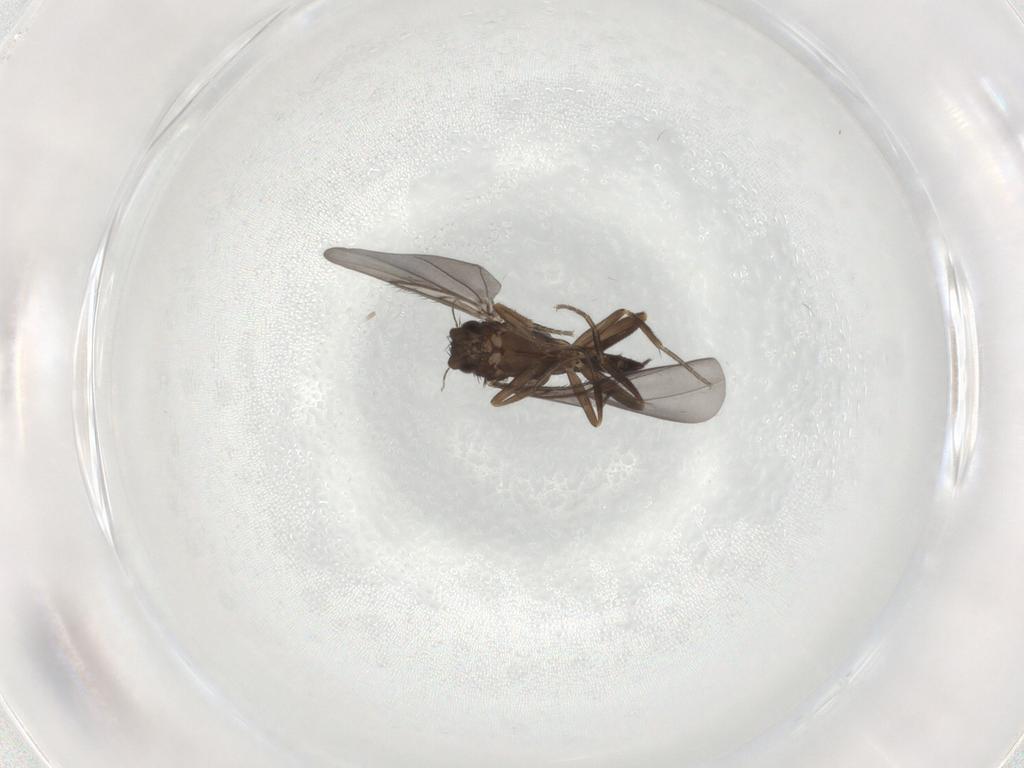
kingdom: Animalia
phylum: Arthropoda
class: Insecta
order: Diptera
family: Phoridae
